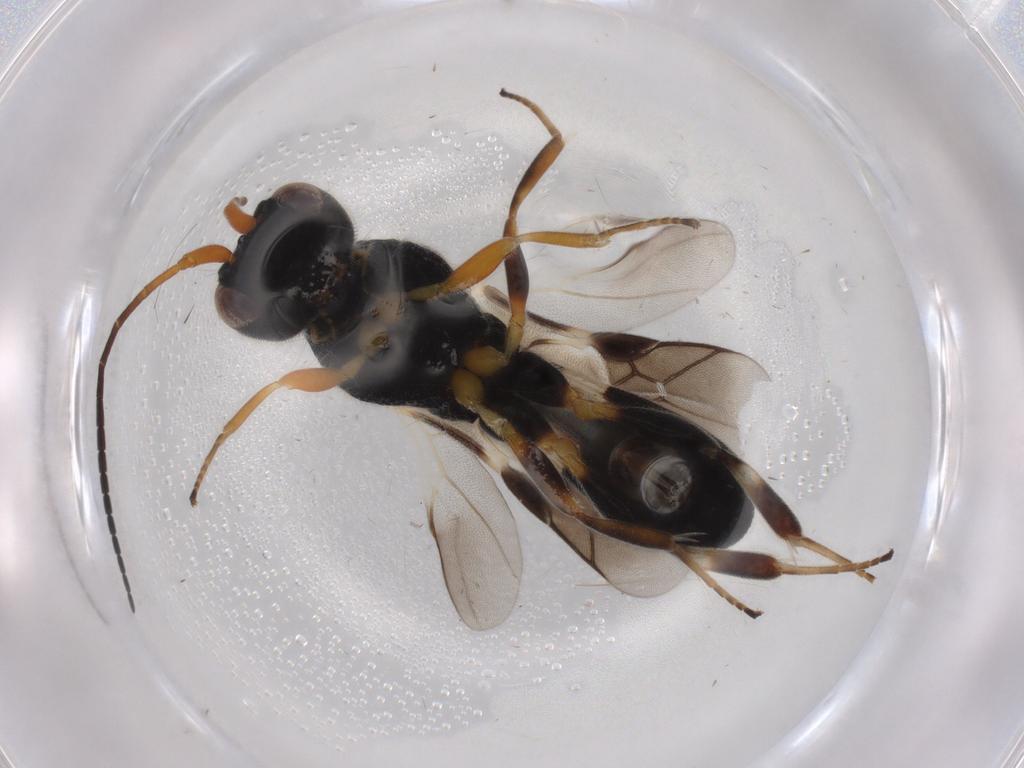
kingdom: Animalia
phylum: Arthropoda
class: Insecta
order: Hymenoptera
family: Braconidae
